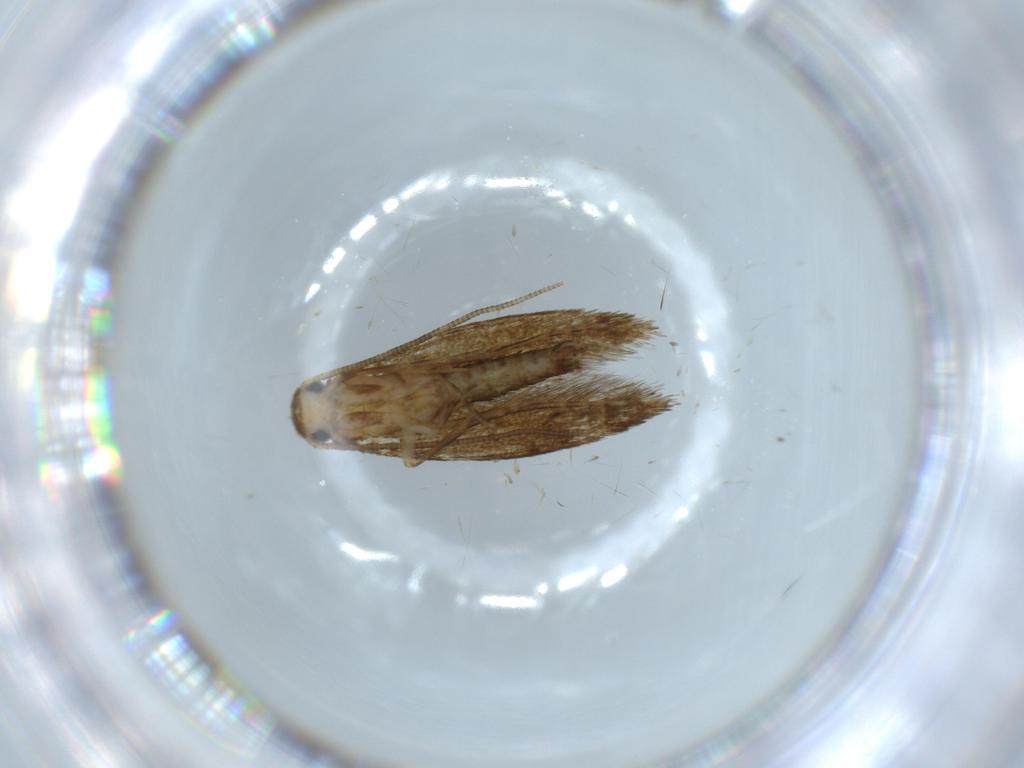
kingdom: Animalia
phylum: Arthropoda
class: Insecta
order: Lepidoptera
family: Tineidae
